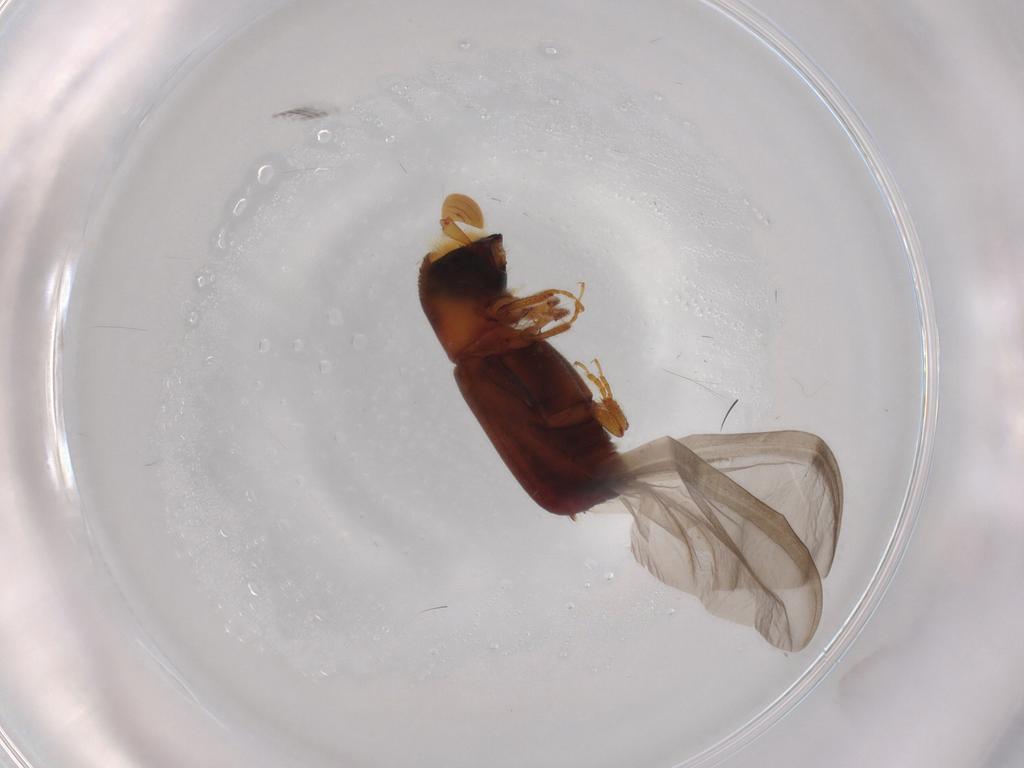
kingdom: Animalia
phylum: Arthropoda
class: Insecta
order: Coleoptera
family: Curculionidae
